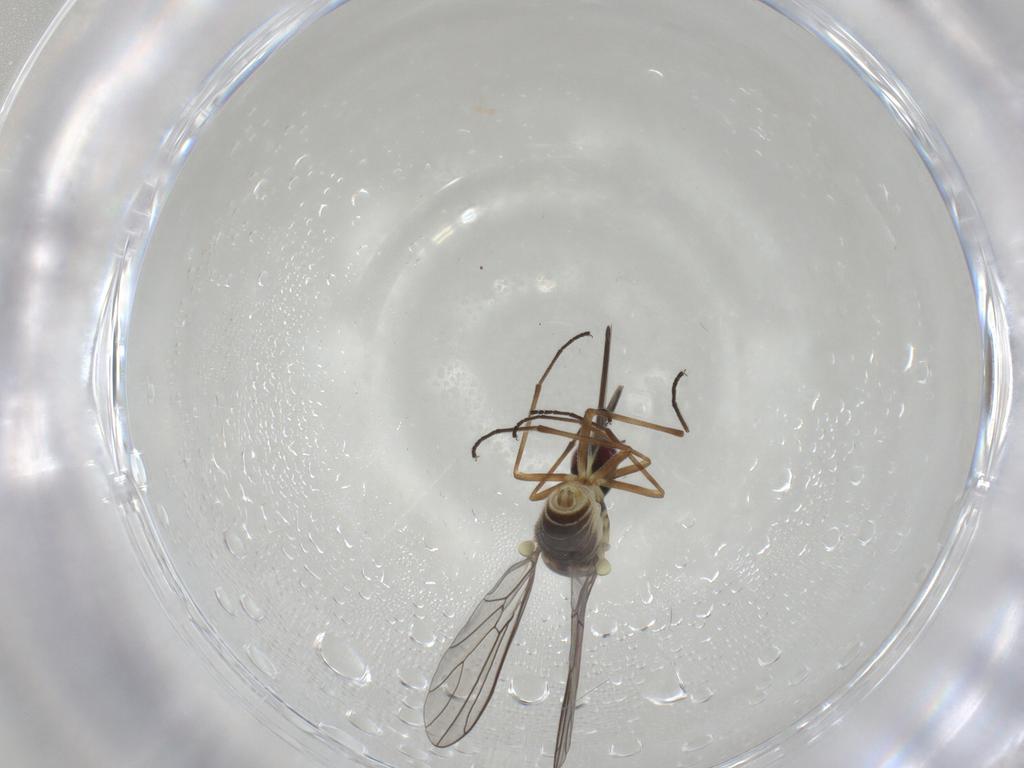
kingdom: Animalia
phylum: Arthropoda
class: Insecta
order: Diptera
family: Bombyliidae
